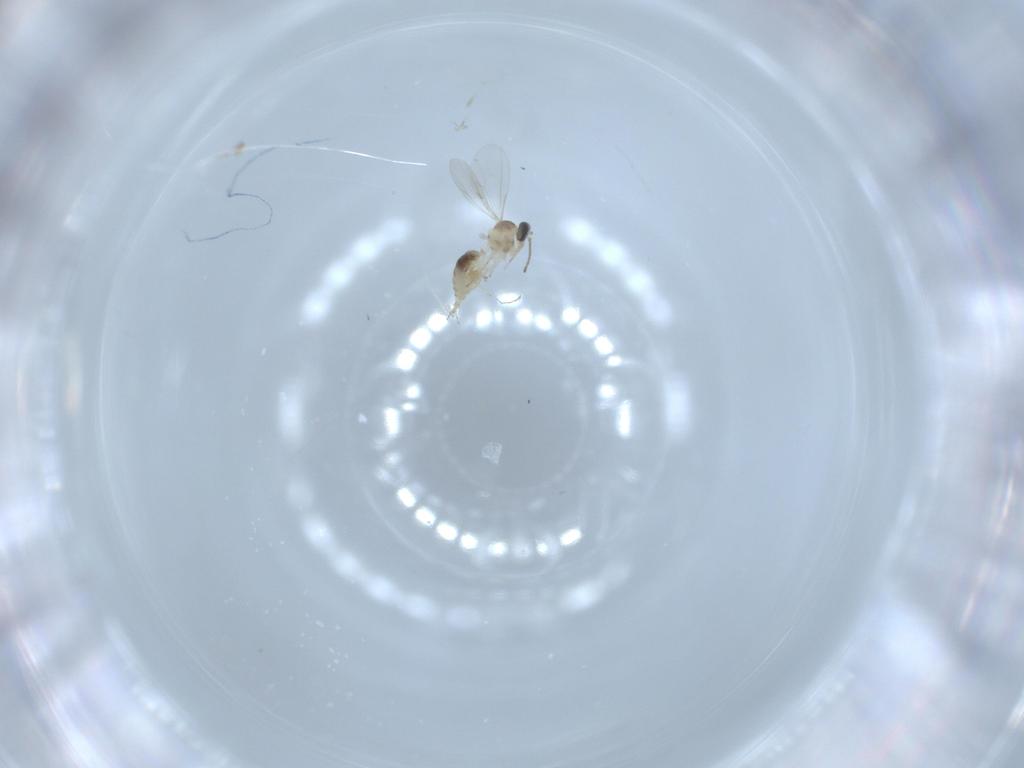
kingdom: Animalia
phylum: Arthropoda
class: Insecta
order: Diptera
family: Cecidomyiidae
